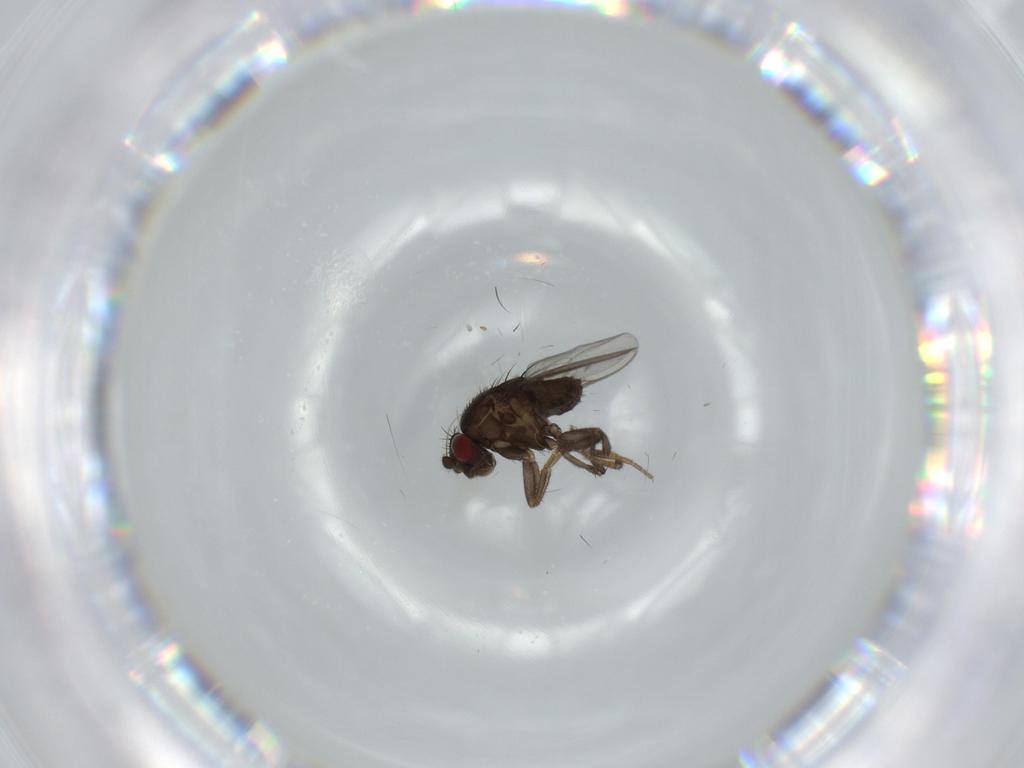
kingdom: Animalia
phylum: Arthropoda
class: Insecta
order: Diptera
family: Sphaeroceridae
